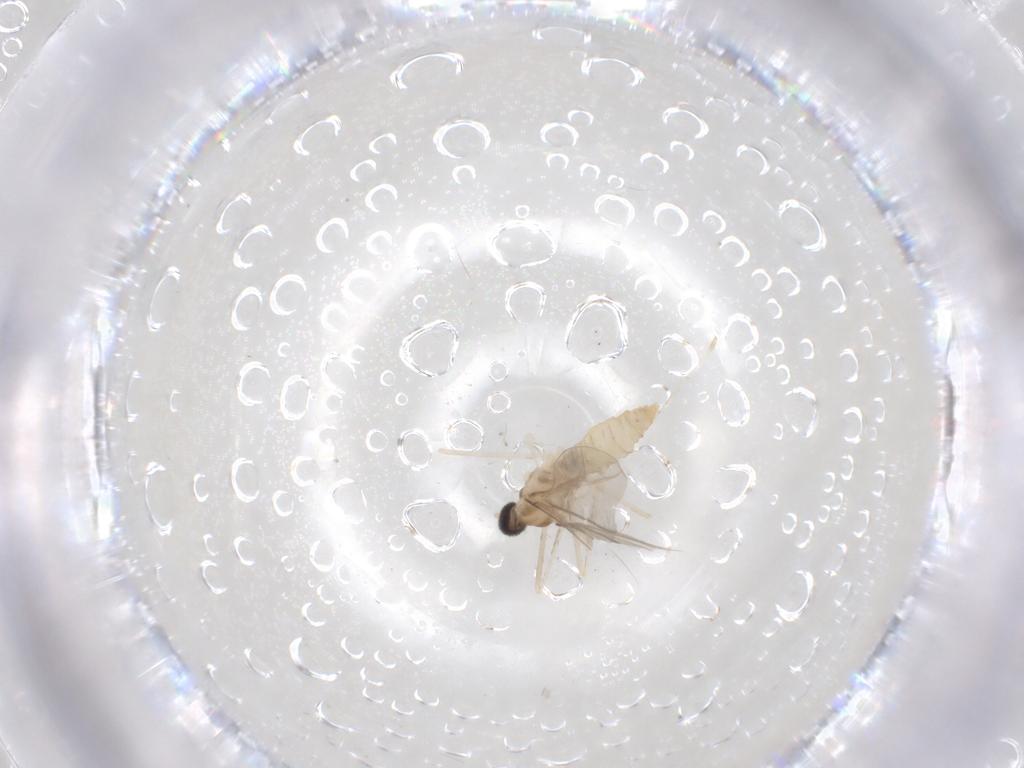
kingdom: Animalia
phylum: Arthropoda
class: Insecta
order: Diptera
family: Cecidomyiidae
